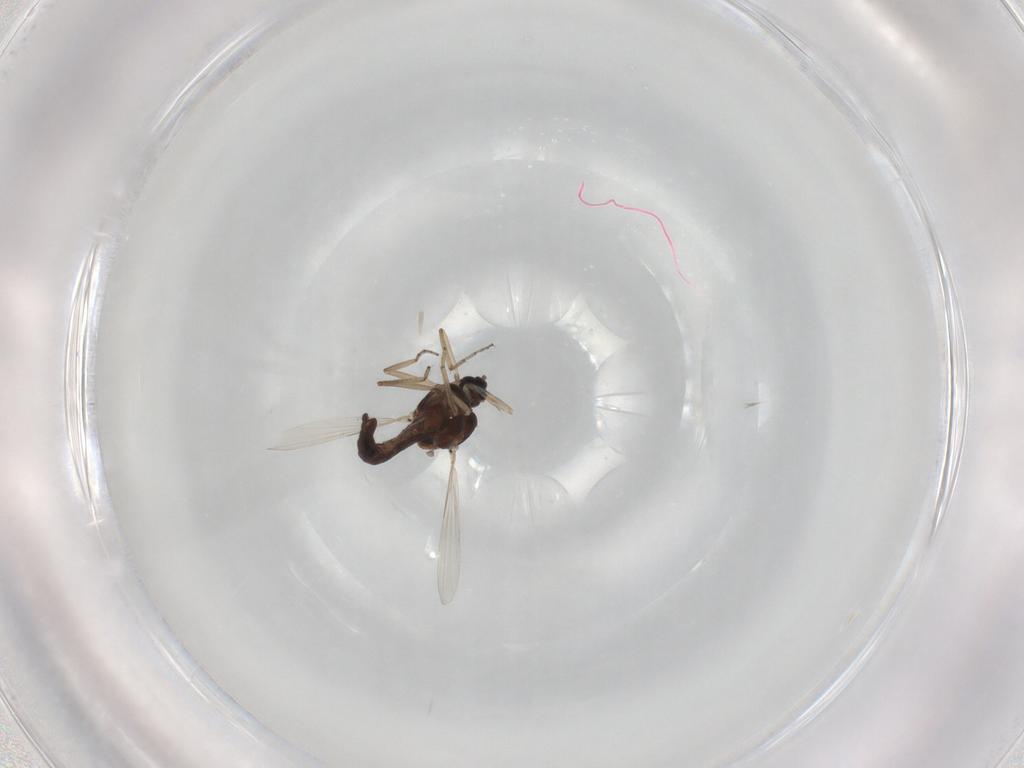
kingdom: Animalia
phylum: Arthropoda
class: Insecta
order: Diptera
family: Ceratopogonidae
